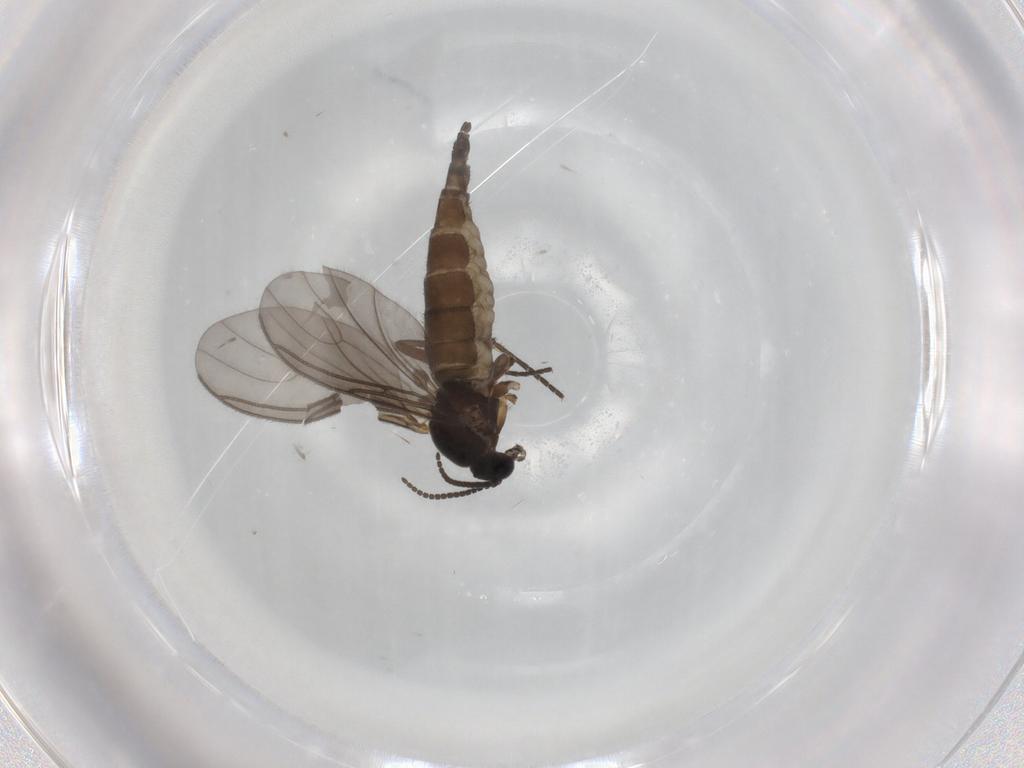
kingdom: Animalia
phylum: Arthropoda
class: Insecta
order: Diptera
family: Sciaridae
